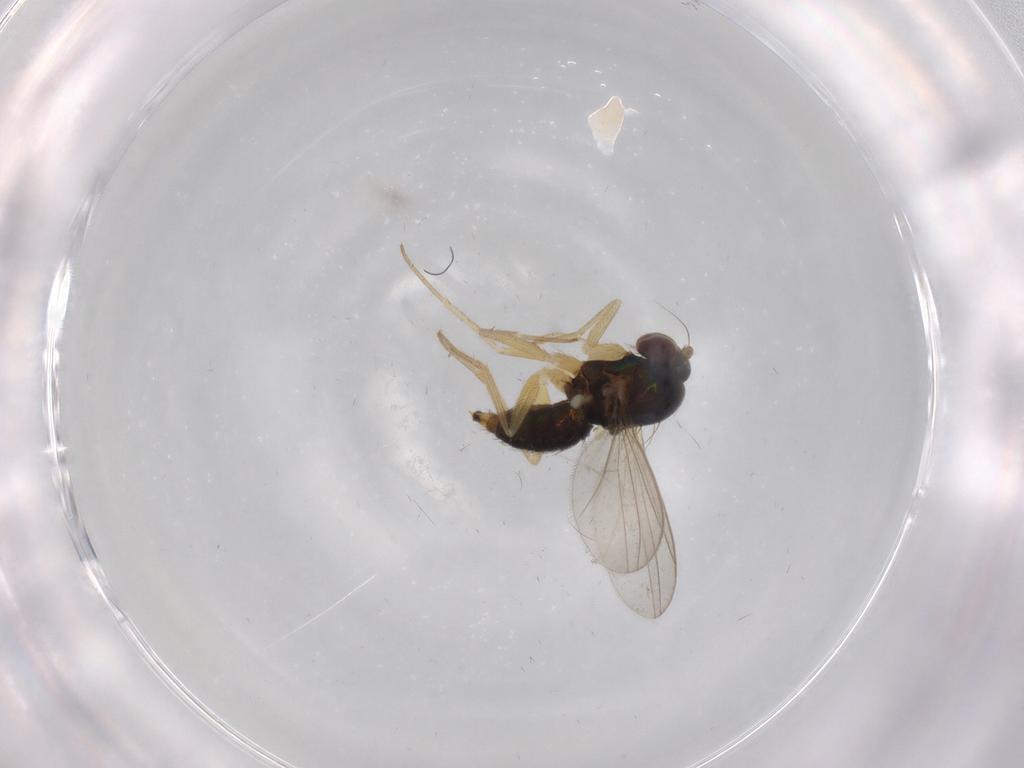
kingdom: Animalia
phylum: Arthropoda
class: Insecta
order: Diptera
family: Dolichopodidae
